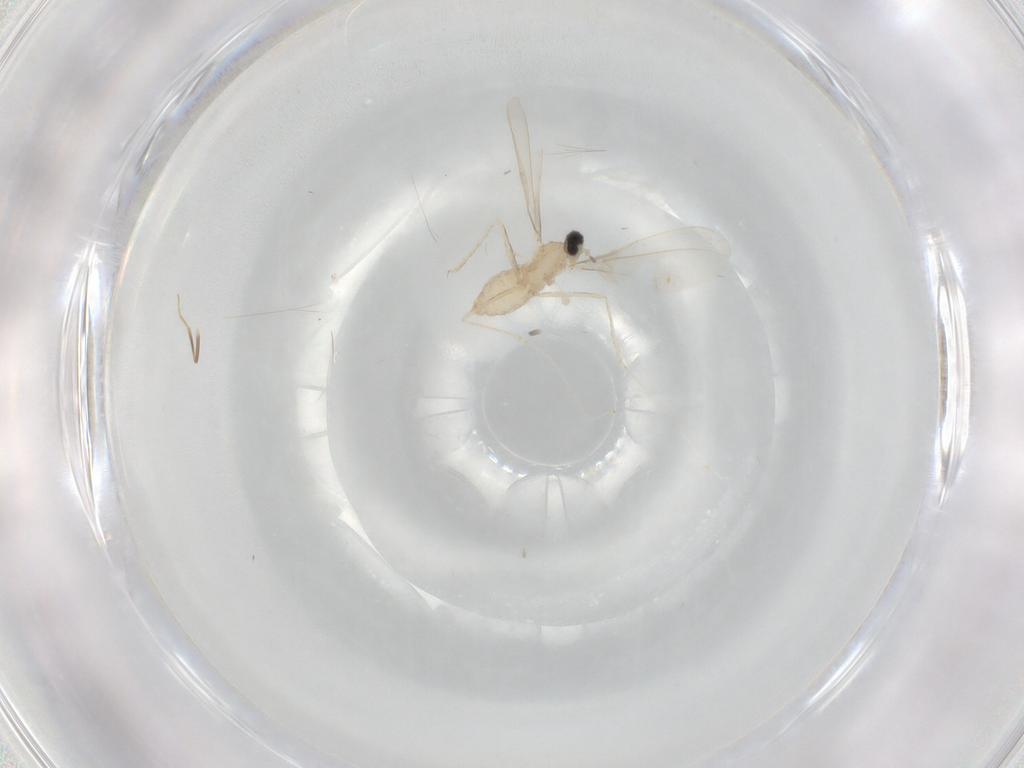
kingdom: Animalia
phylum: Arthropoda
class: Insecta
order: Diptera
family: Cecidomyiidae
